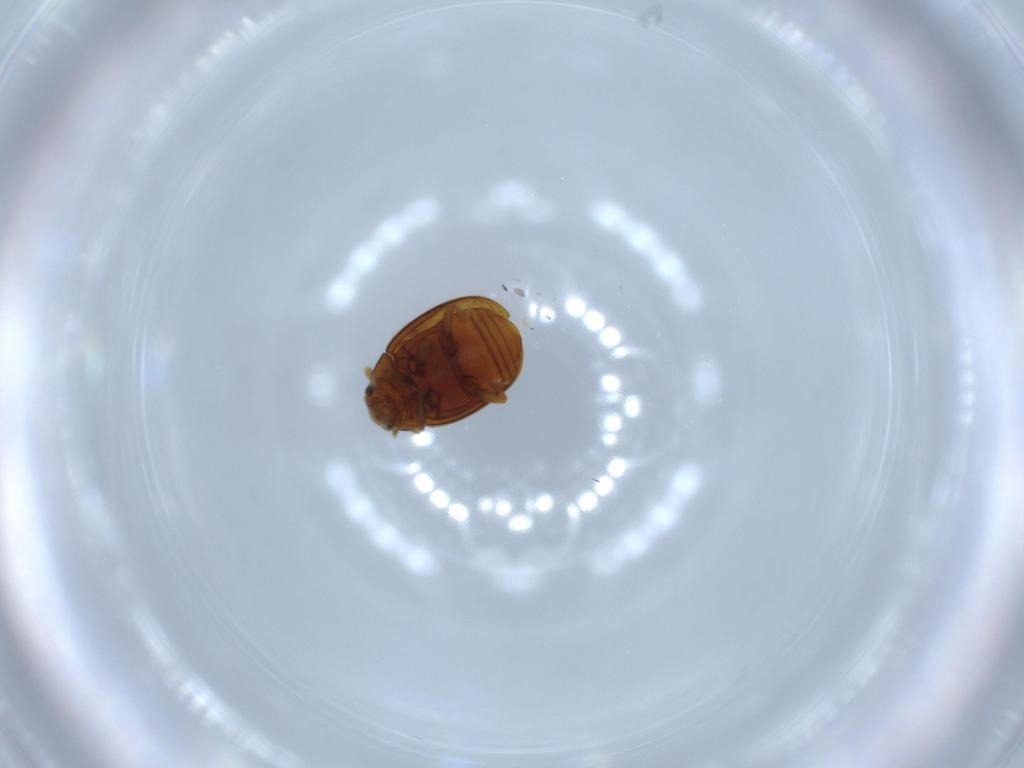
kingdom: Animalia
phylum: Arthropoda
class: Insecta
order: Coleoptera
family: Coccinellidae
